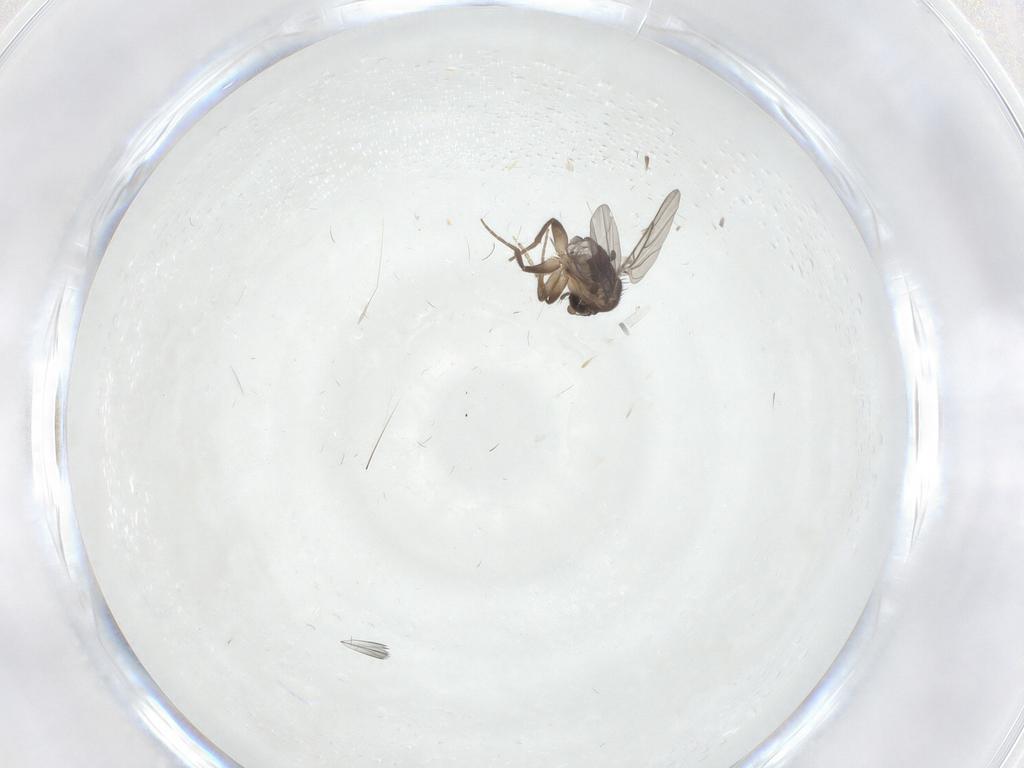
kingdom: Animalia
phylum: Arthropoda
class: Insecta
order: Diptera
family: Phoridae
